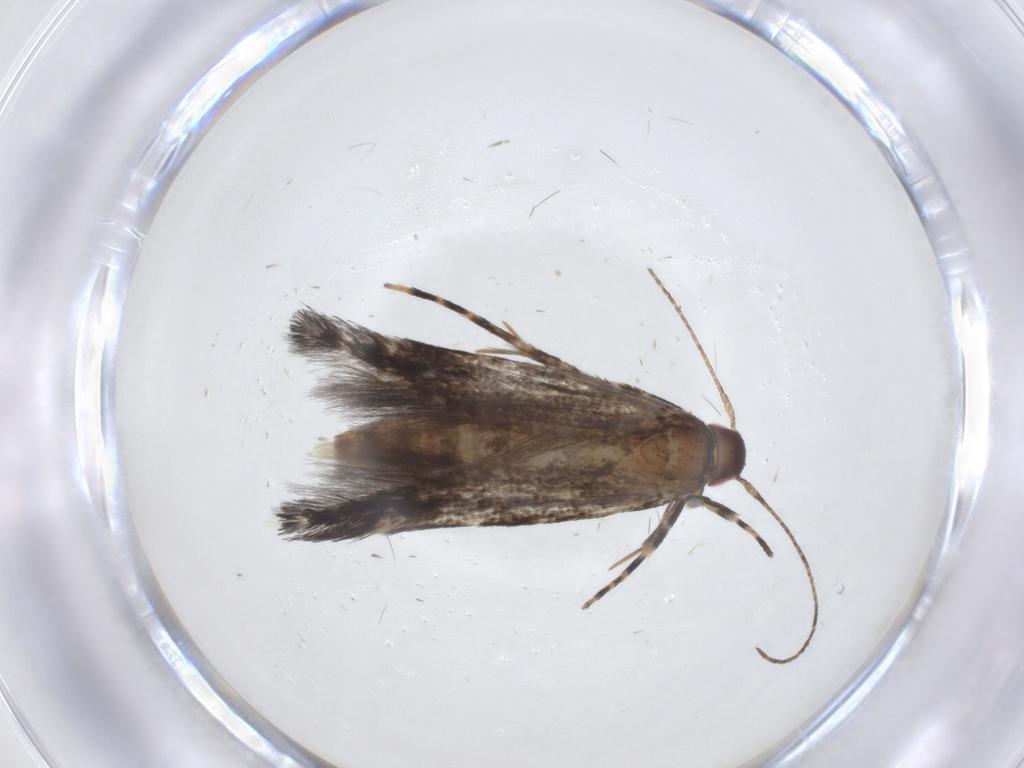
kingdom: Animalia
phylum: Arthropoda
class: Insecta
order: Lepidoptera
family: Cosmopterigidae
